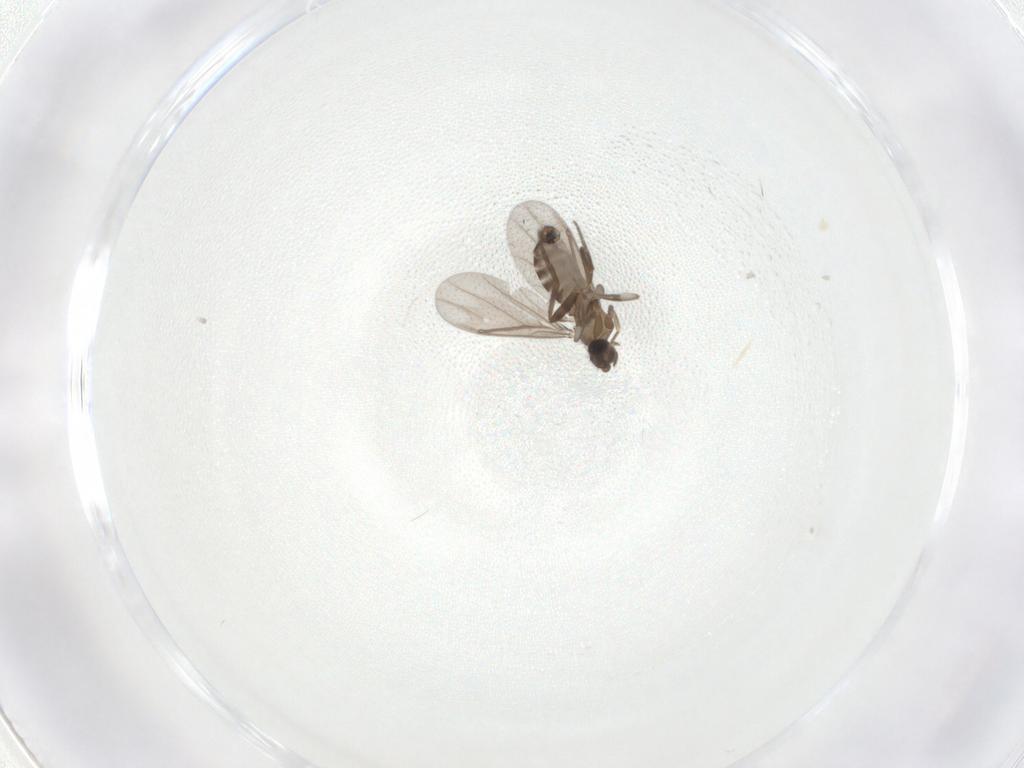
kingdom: Animalia
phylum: Arthropoda
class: Insecta
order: Diptera
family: Phoridae
